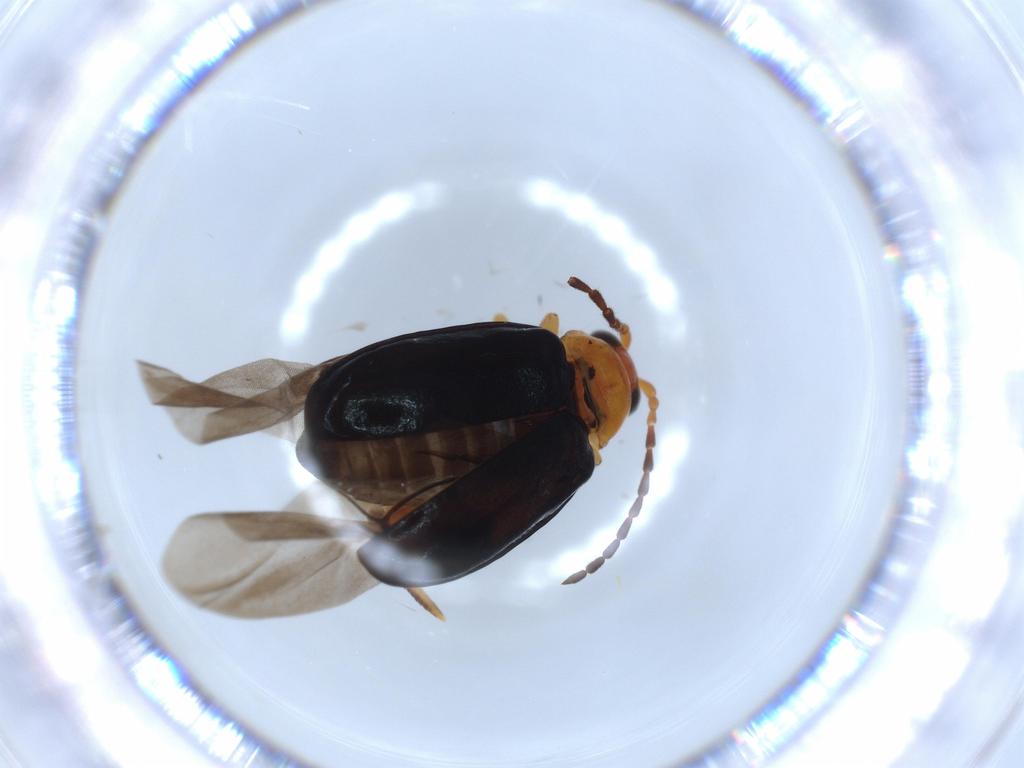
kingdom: Animalia
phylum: Arthropoda
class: Insecta
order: Coleoptera
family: Chrysomelidae
